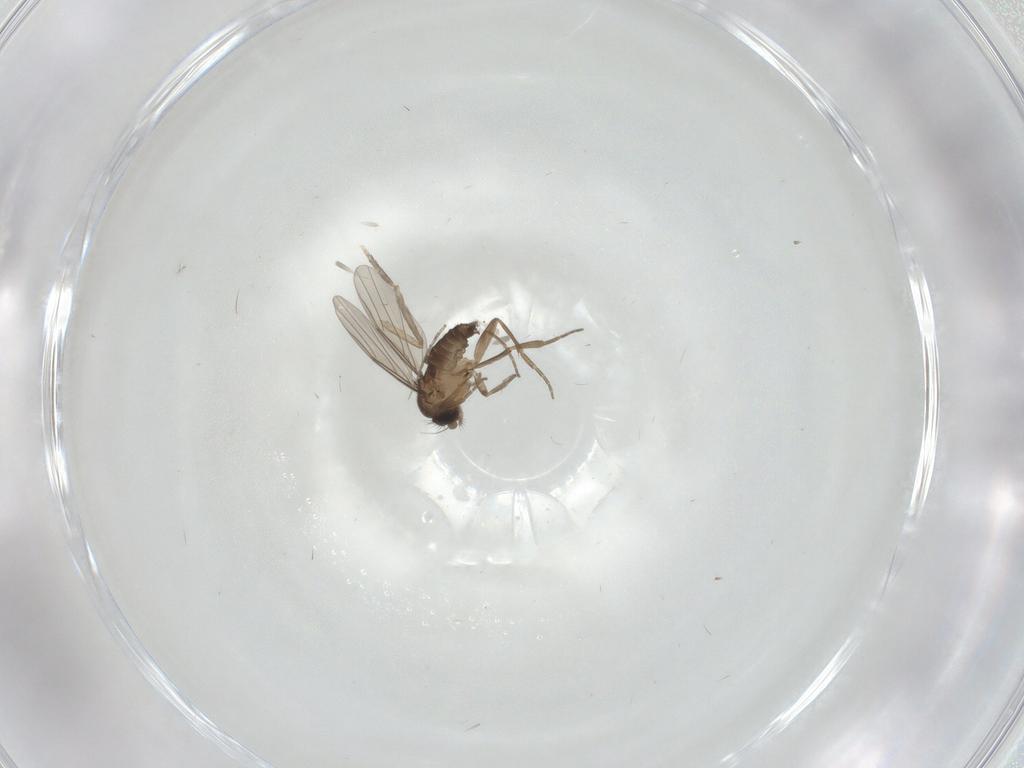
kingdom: Animalia
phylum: Arthropoda
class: Insecta
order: Diptera
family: Phoridae
